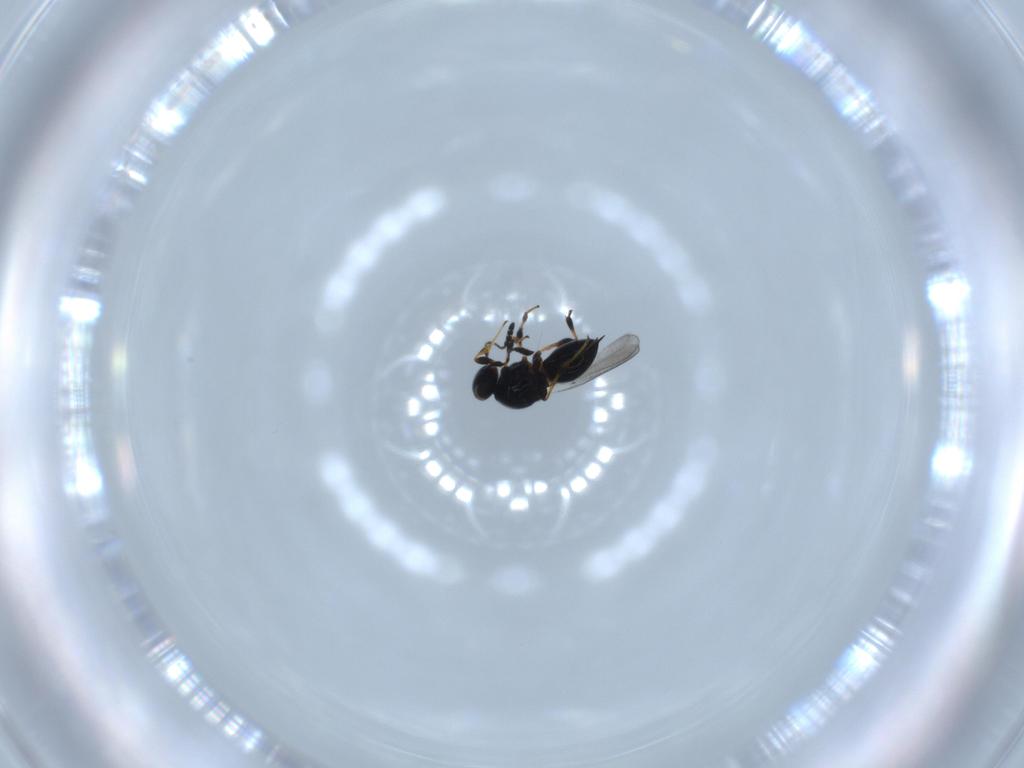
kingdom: Animalia
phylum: Arthropoda
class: Insecta
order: Hymenoptera
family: Platygastridae
